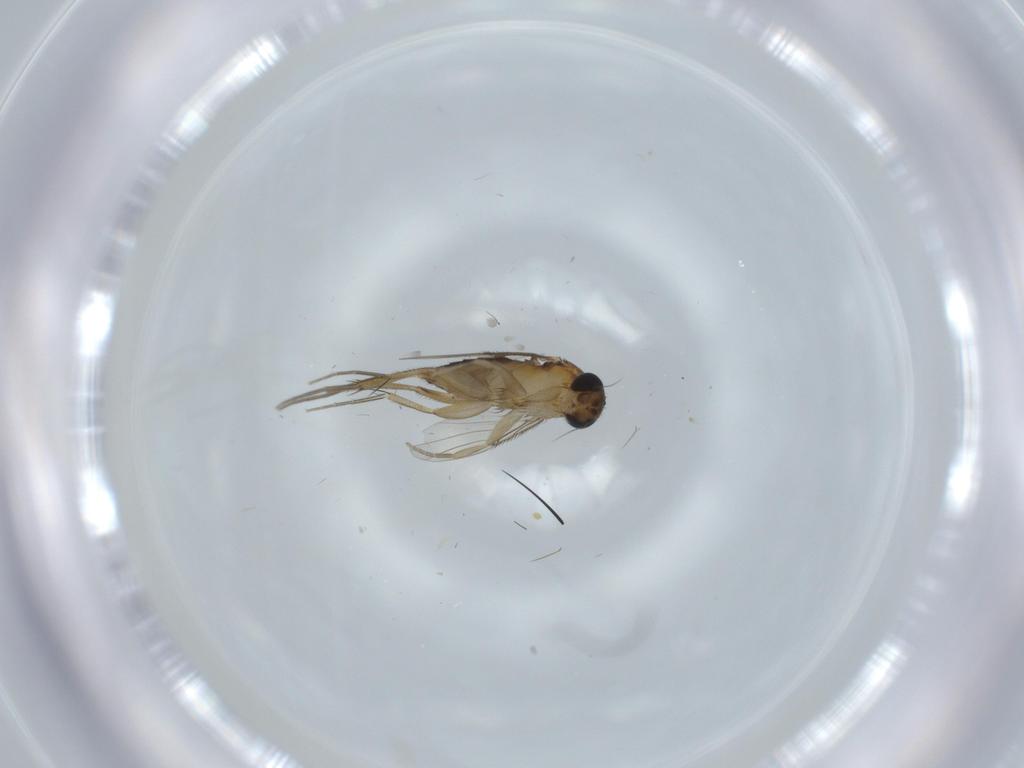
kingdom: Animalia
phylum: Arthropoda
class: Insecta
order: Diptera
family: Phoridae
